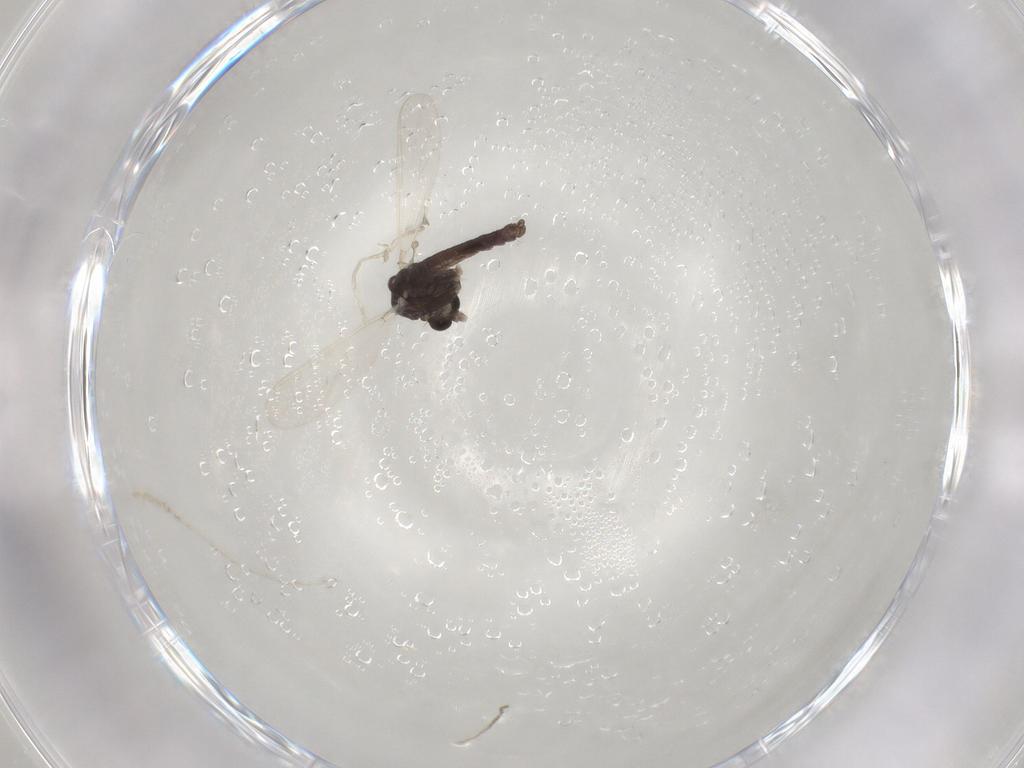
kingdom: Animalia
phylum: Arthropoda
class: Insecta
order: Diptera
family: Chironomidae
